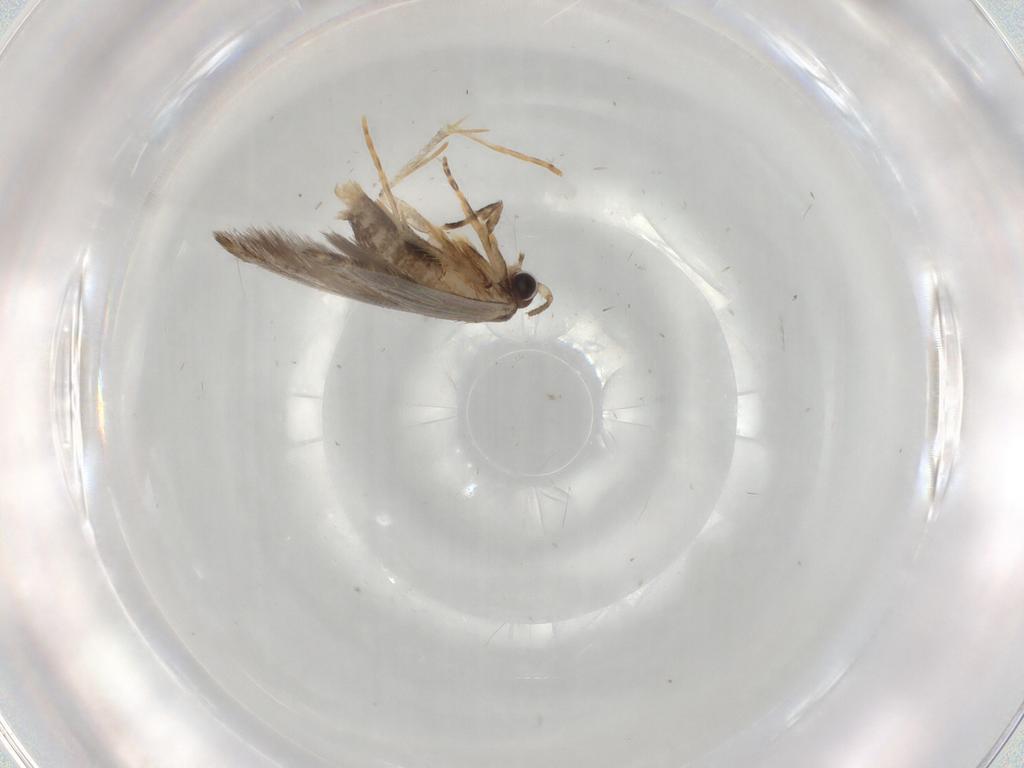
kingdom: Animalia
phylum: Arthropoda
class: Insecta
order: Lepidoptera
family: Tineidae
